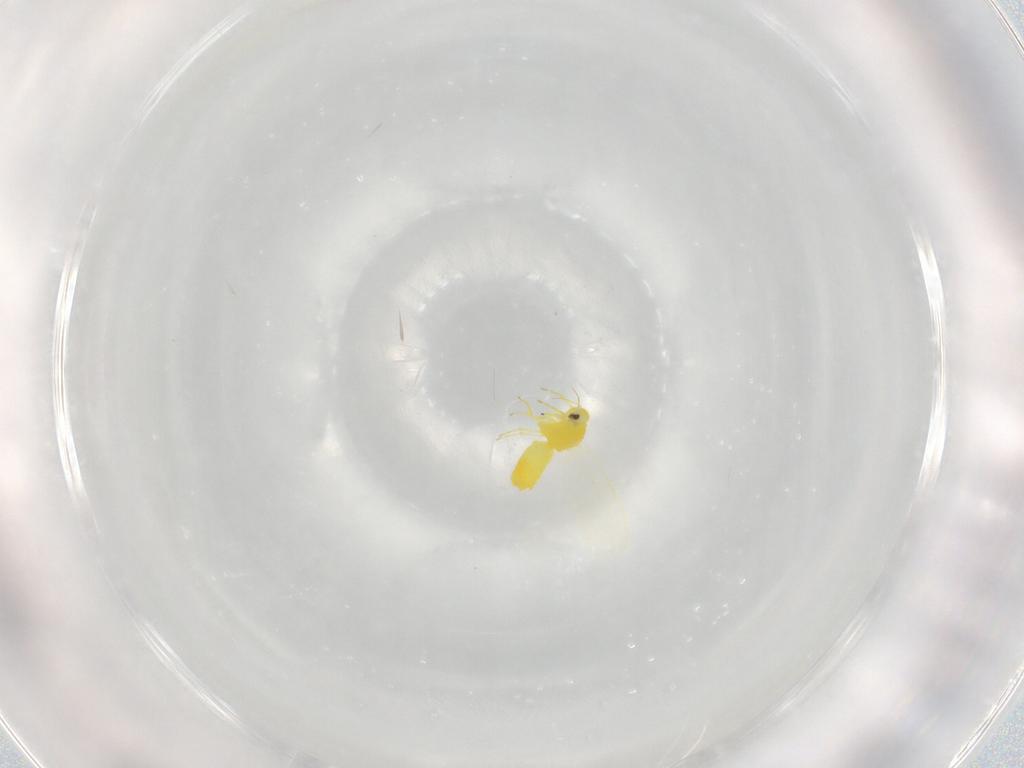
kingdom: Animalia
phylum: Arthropoda
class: Insecta
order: Hemiptera
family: Aleyrodidae
